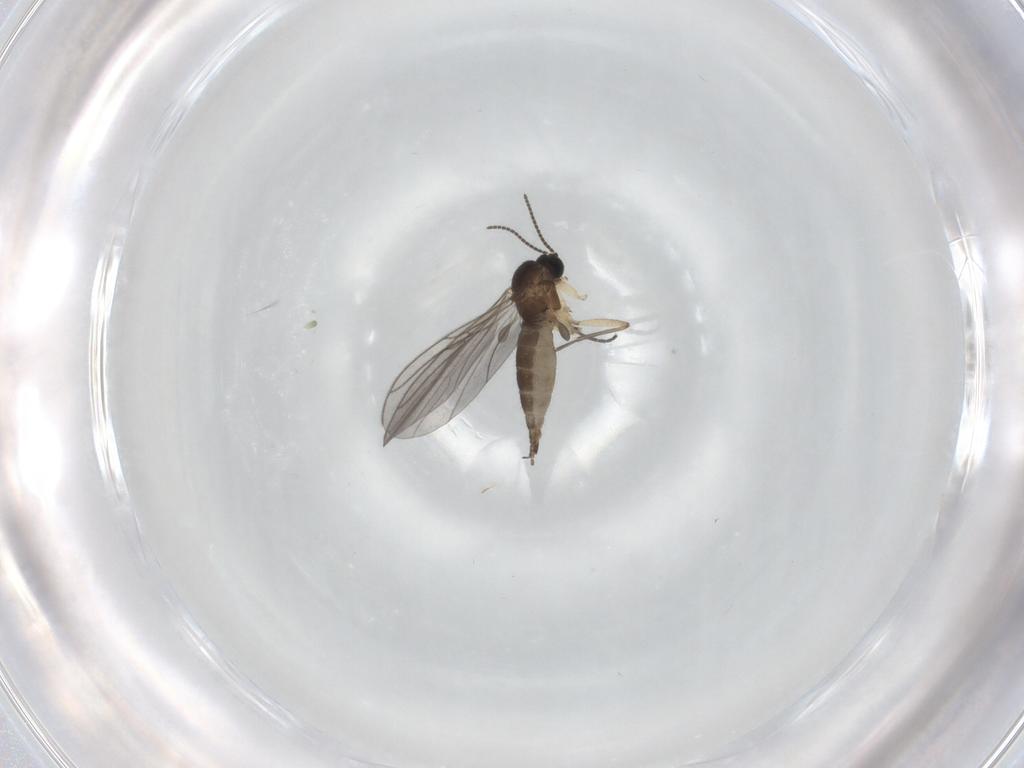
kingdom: Animalia
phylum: Arthropoda
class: Insecta
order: Diptera
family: Sciaridae
